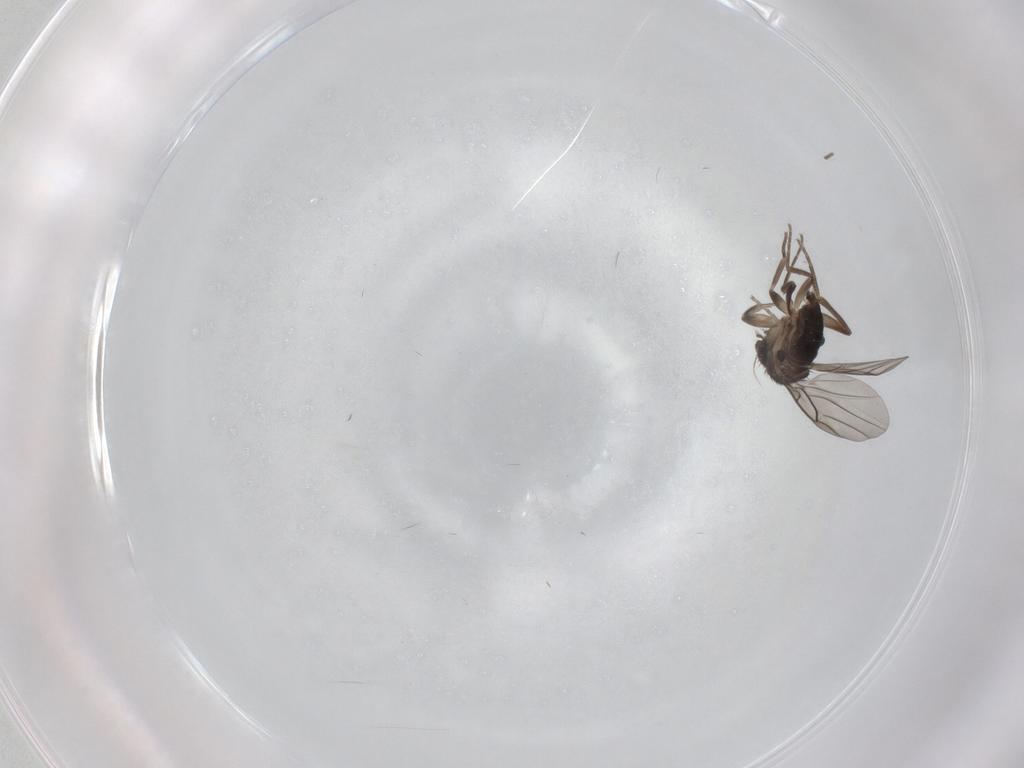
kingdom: Animalia
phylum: Arthropoda
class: Insecta
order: Diptera
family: Phoridae
